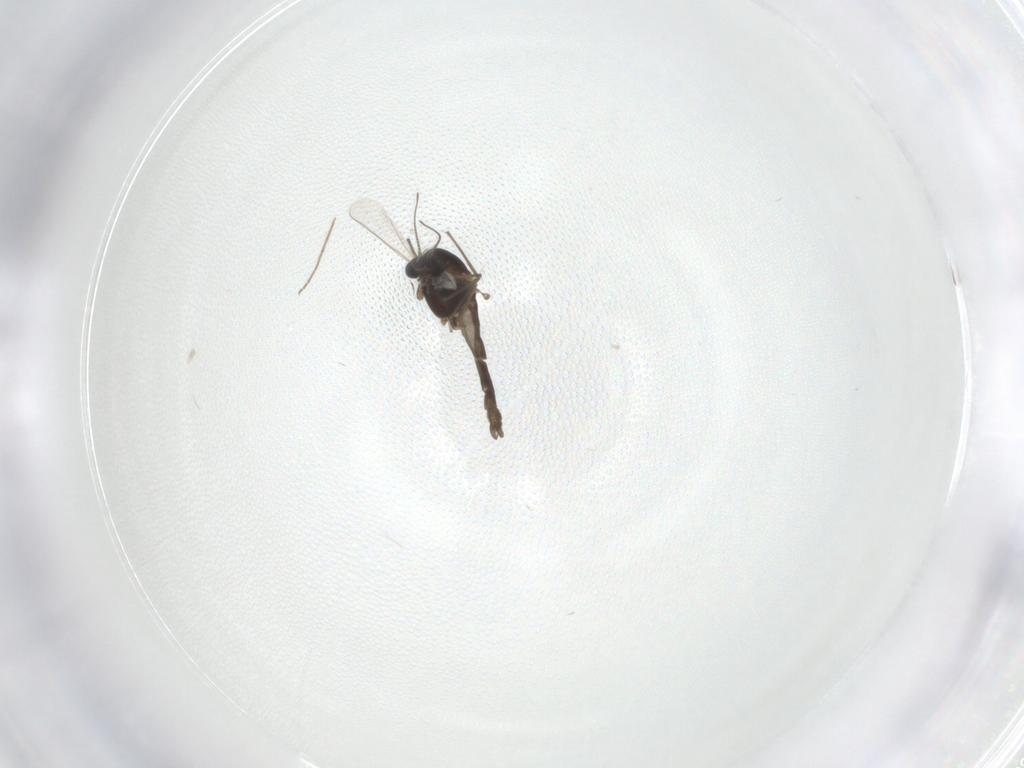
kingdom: Animalia
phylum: Arthropoda
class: Insecta
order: Diptera
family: Chironomidae
